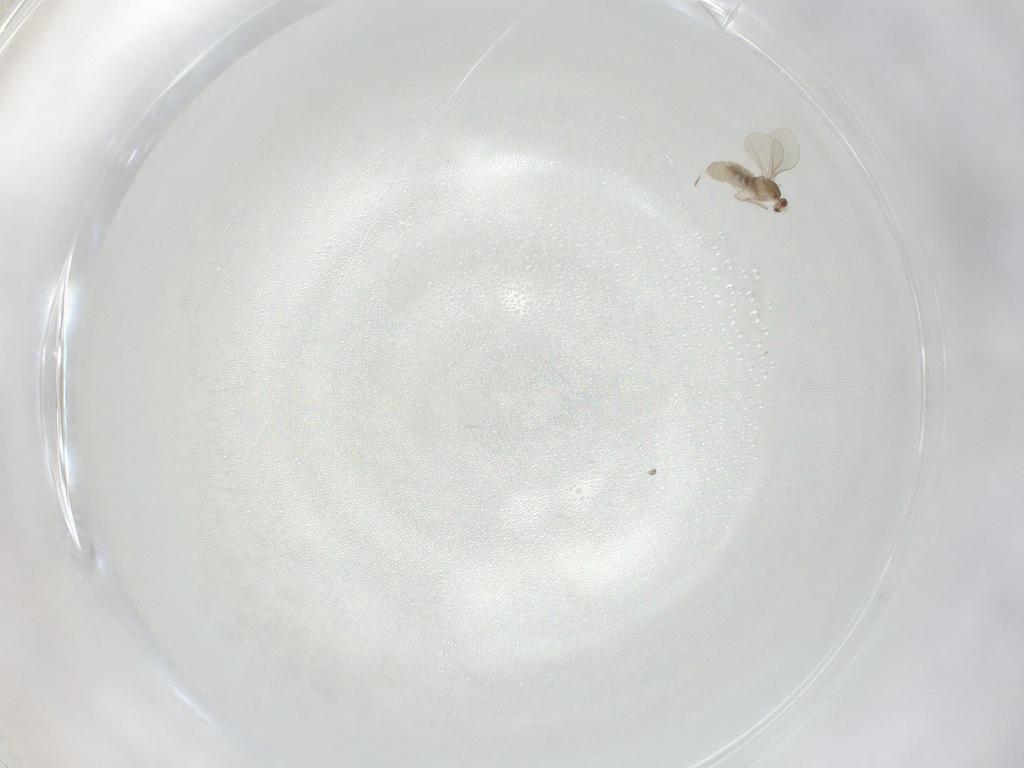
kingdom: Animalia
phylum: Arthropoda
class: Insecta
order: Diptera
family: Cecidomyiidae
